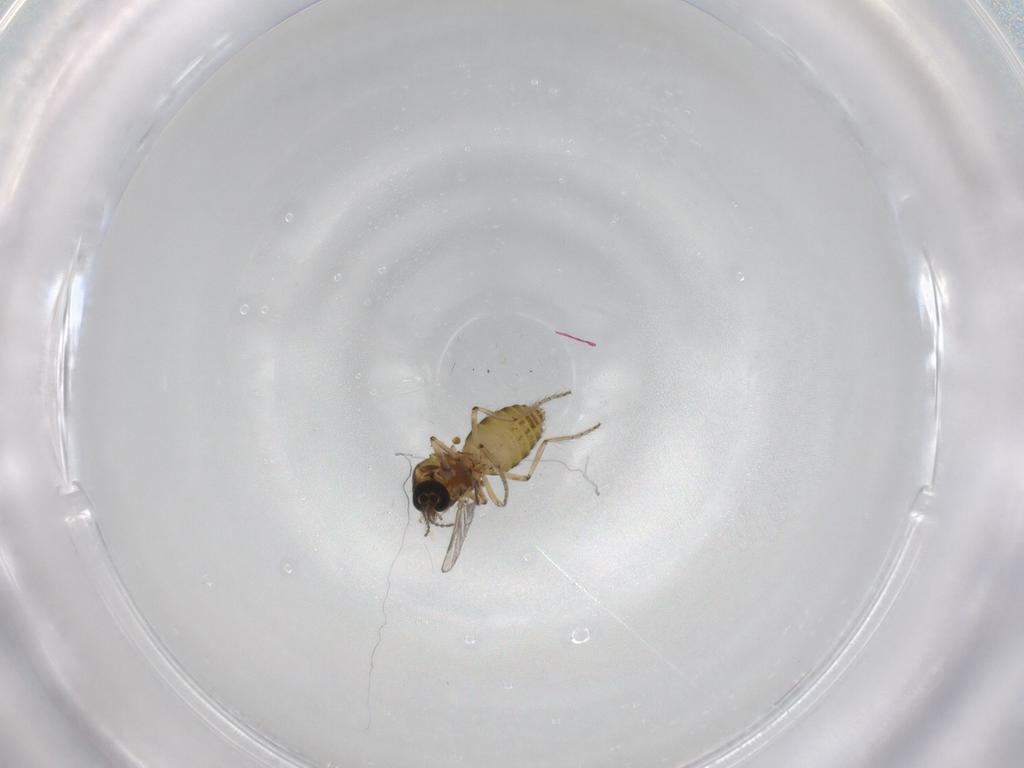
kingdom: Animalia
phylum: Arthropoda
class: Insecta
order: Diptera
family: Ceratopogonidae
